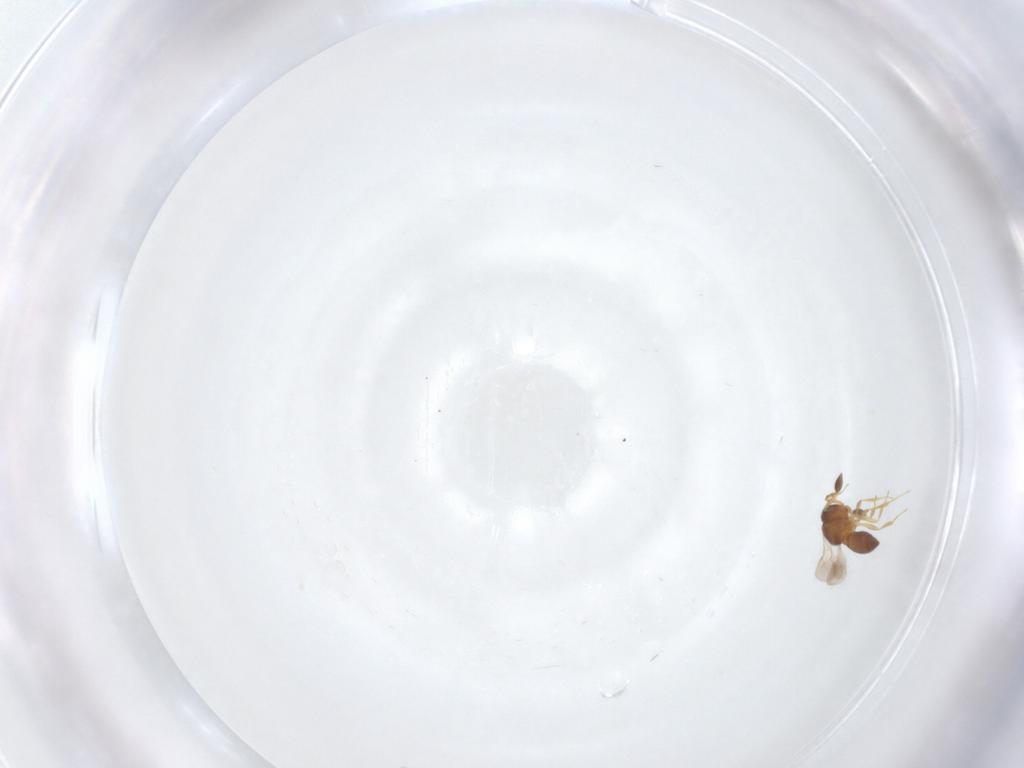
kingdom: Animalia
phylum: Arthropoda
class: Insecta
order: Hymenoptera
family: Scelionidae
